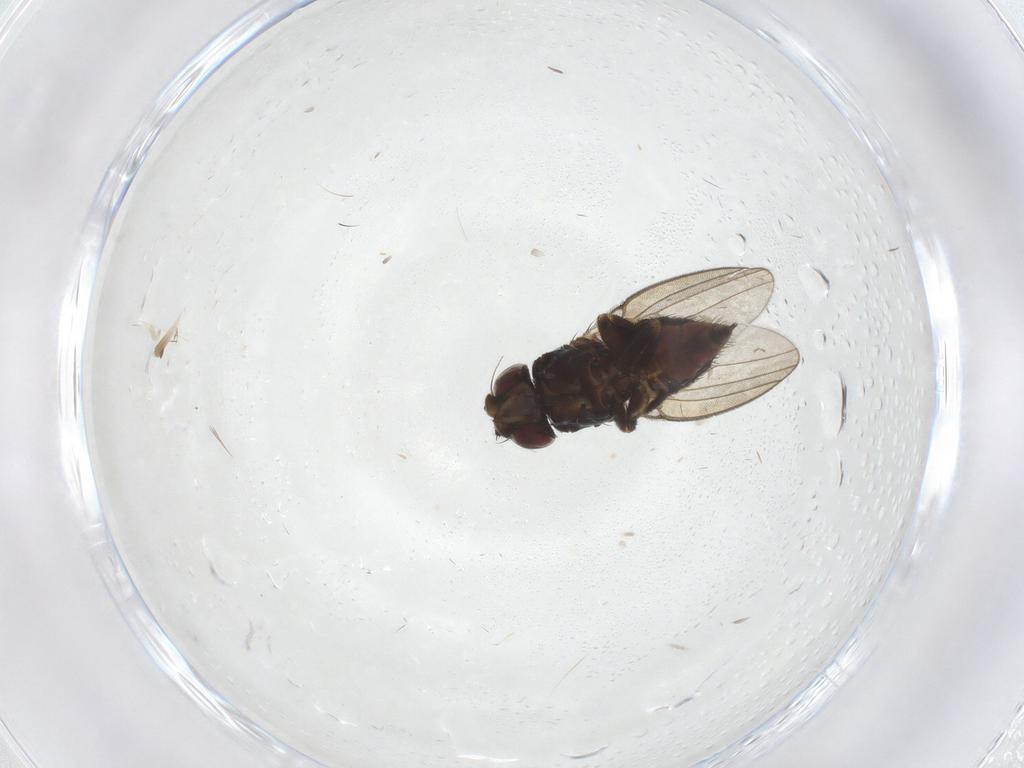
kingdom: Animalia
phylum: Arthropoda
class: Insecta
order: Diptera
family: Milichiidae
